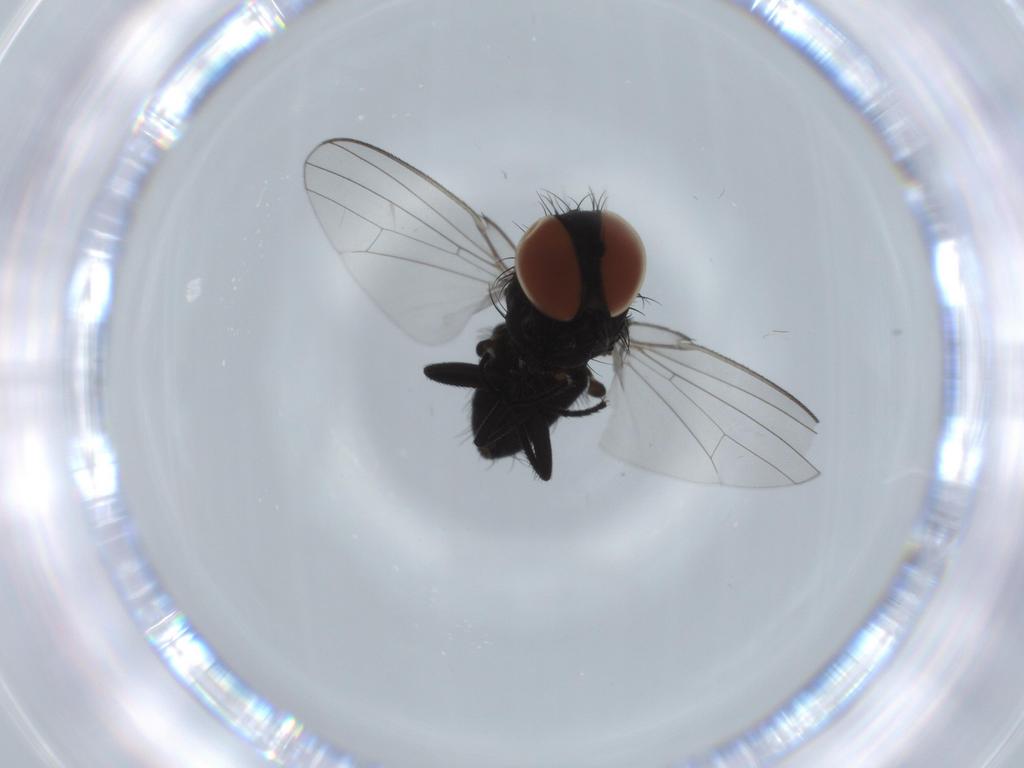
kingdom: Animalia
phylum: Arthropoda
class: Insecta
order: Diptera
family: Milichiidae
